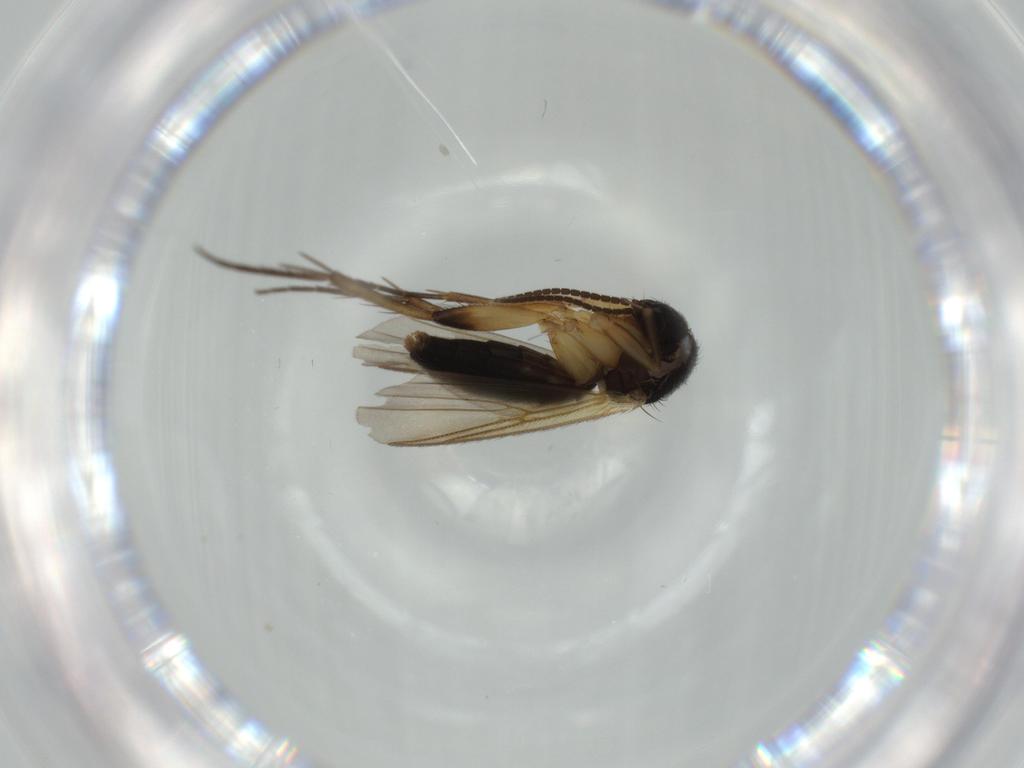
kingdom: Animalia
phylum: Arthropoda
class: Insecta
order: Diptera
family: Mycetophilidae
